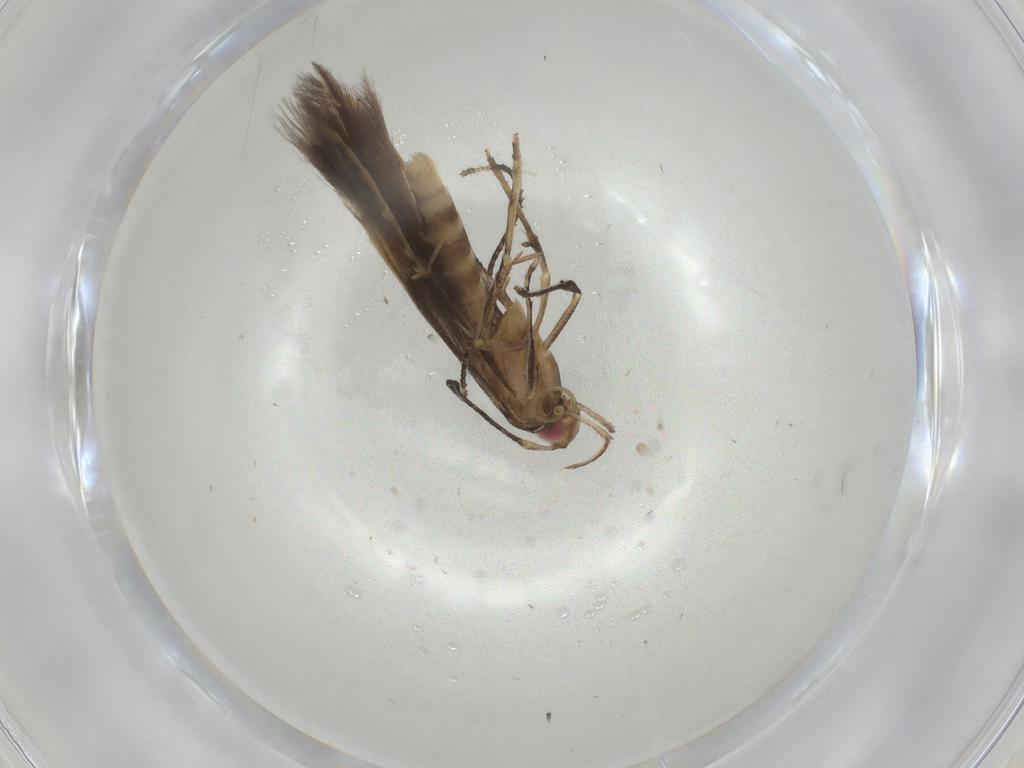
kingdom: Animalia
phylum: Arthropoda
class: Insecta
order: Lepidoptera
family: Cosmopterigidae
